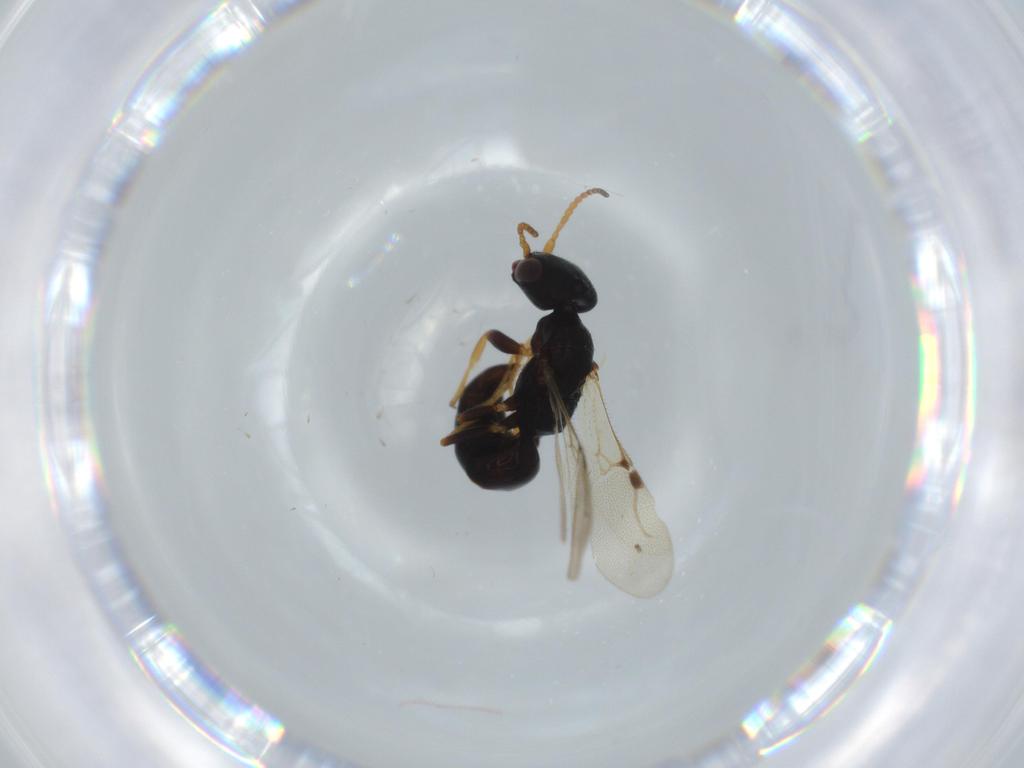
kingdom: Animalia
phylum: Arthropoda
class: Insecta
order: Hymenoptera
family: Bethylidae
